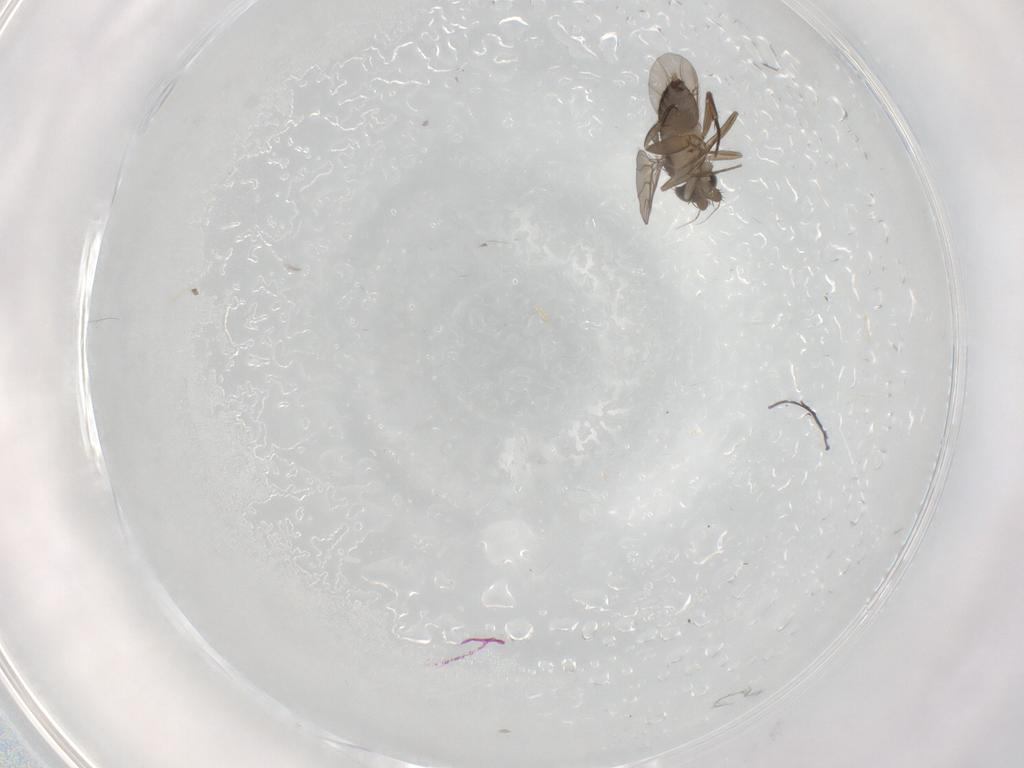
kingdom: Animalia
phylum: Arthropoda
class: Insecta
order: Diptera
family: Phoridae
